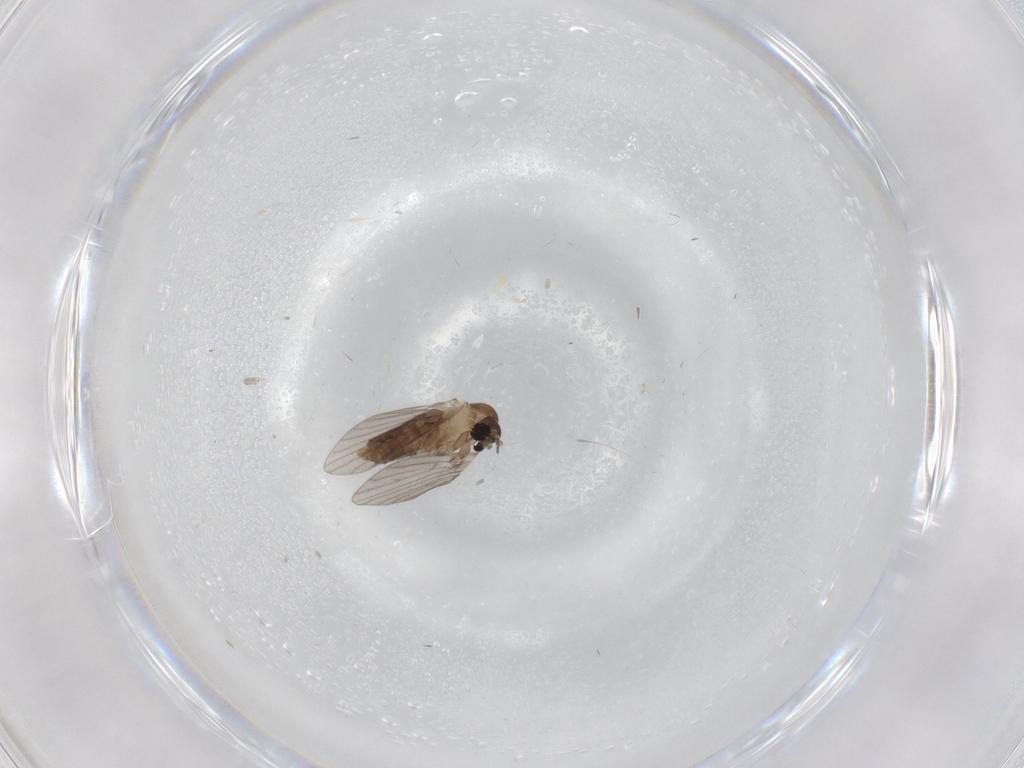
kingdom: Animalia
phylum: Arthropoda
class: Insecta
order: Diptera
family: Psychodidae
